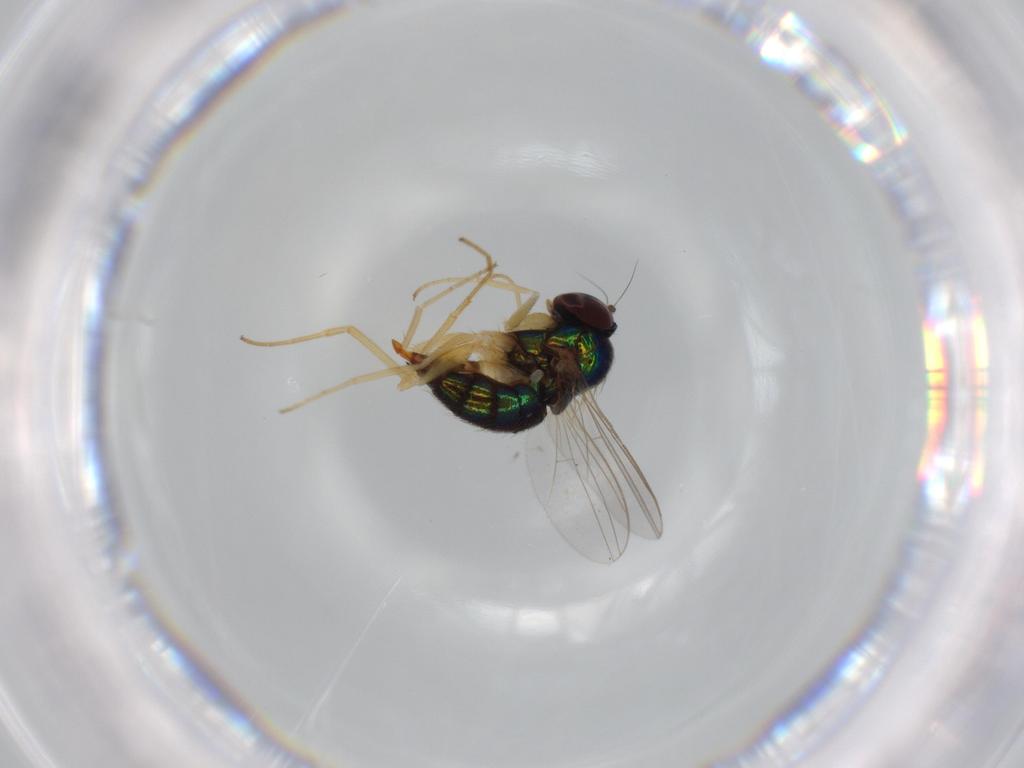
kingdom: Animalia
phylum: Arthropoda
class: Insecta
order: Diptera
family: Dolichopodidae
